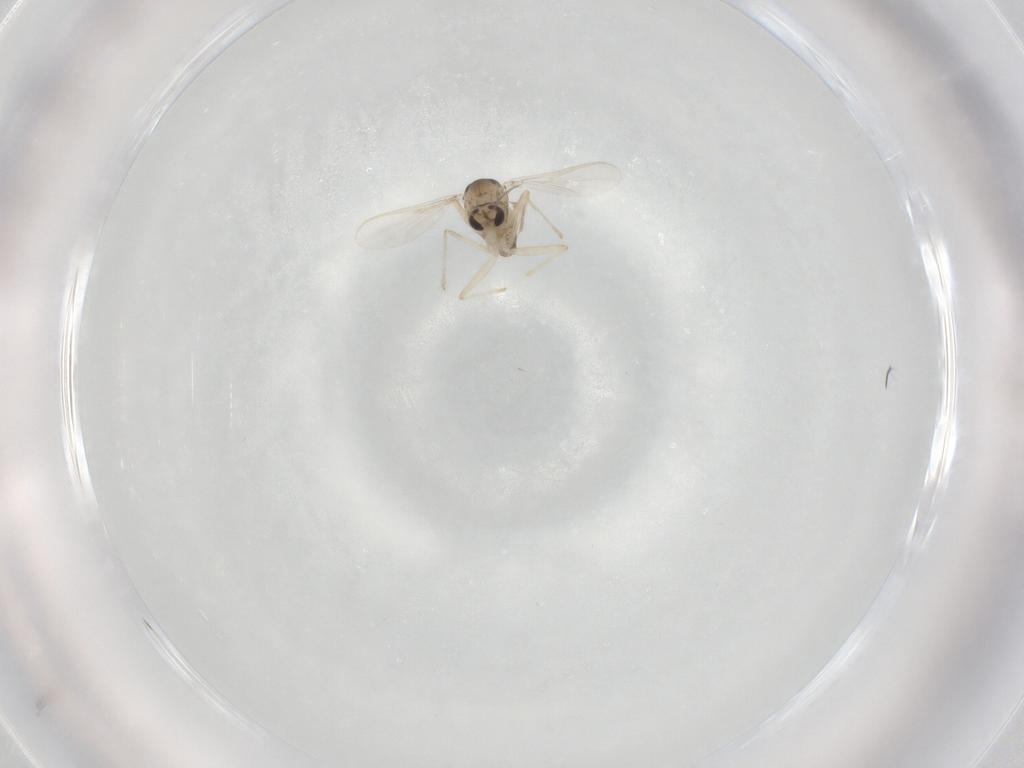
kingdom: Animalia
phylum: Arthropoda
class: Insecta
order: Diptera
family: Chironomidae
